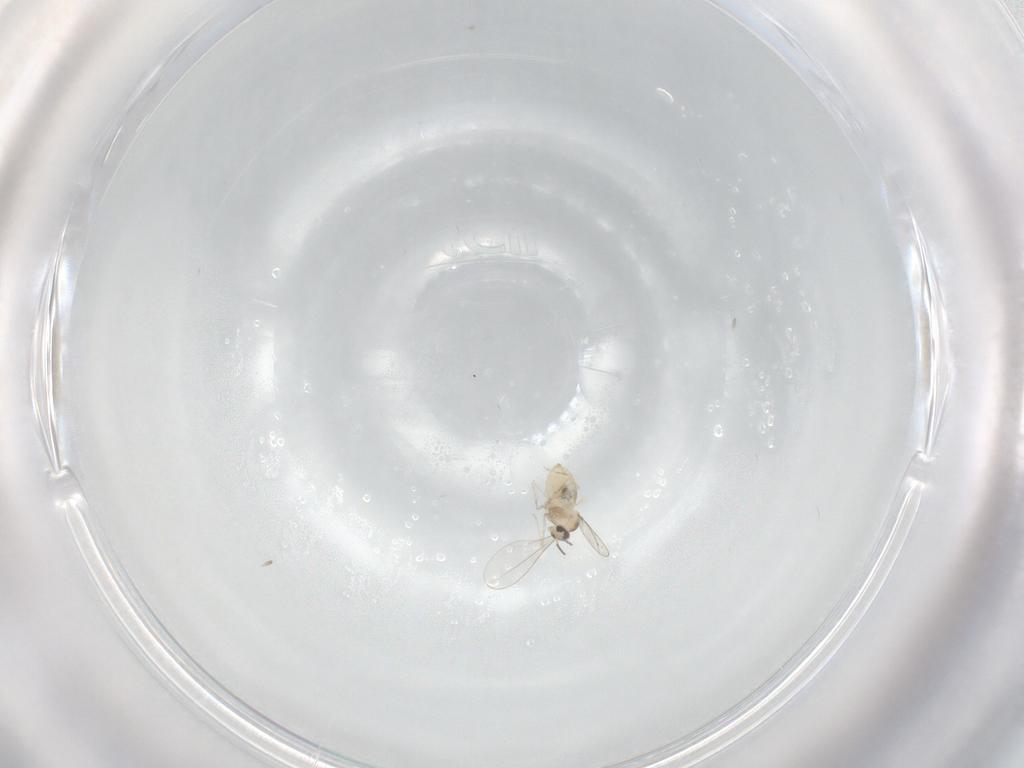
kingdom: Animalia
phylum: Arthropoda
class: Insecta
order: Diptera
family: Cecidomyiidae
